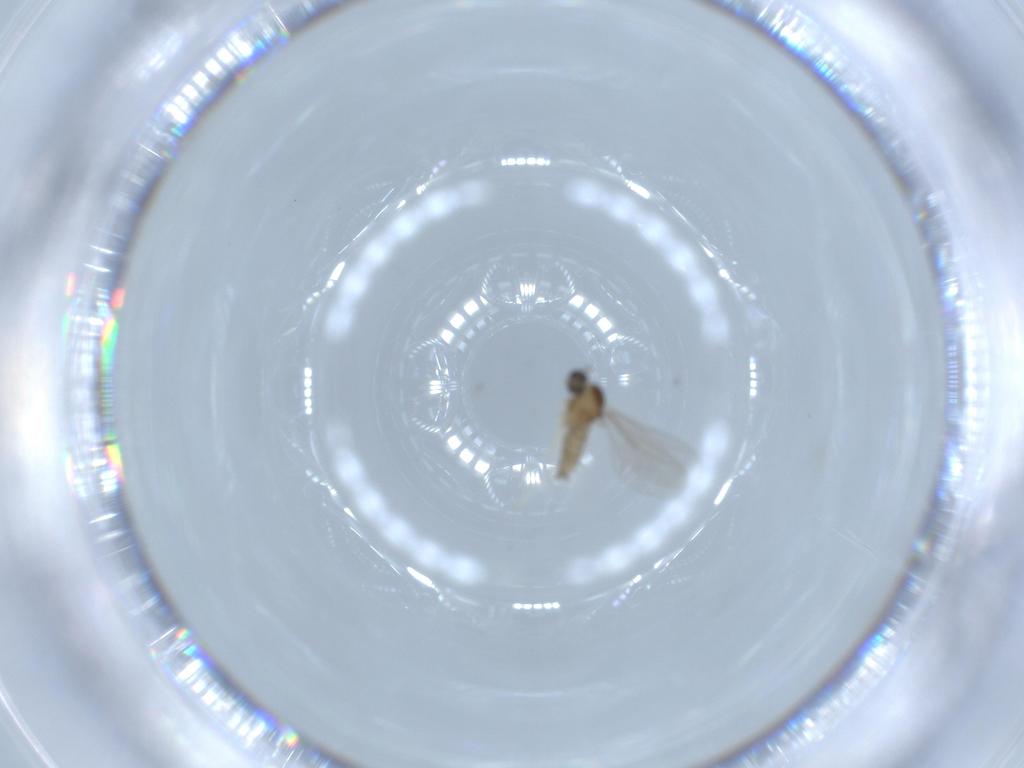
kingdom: Animalia
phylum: Arthropoda
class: Insecta
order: Diptera
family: Cecidomyiidae
